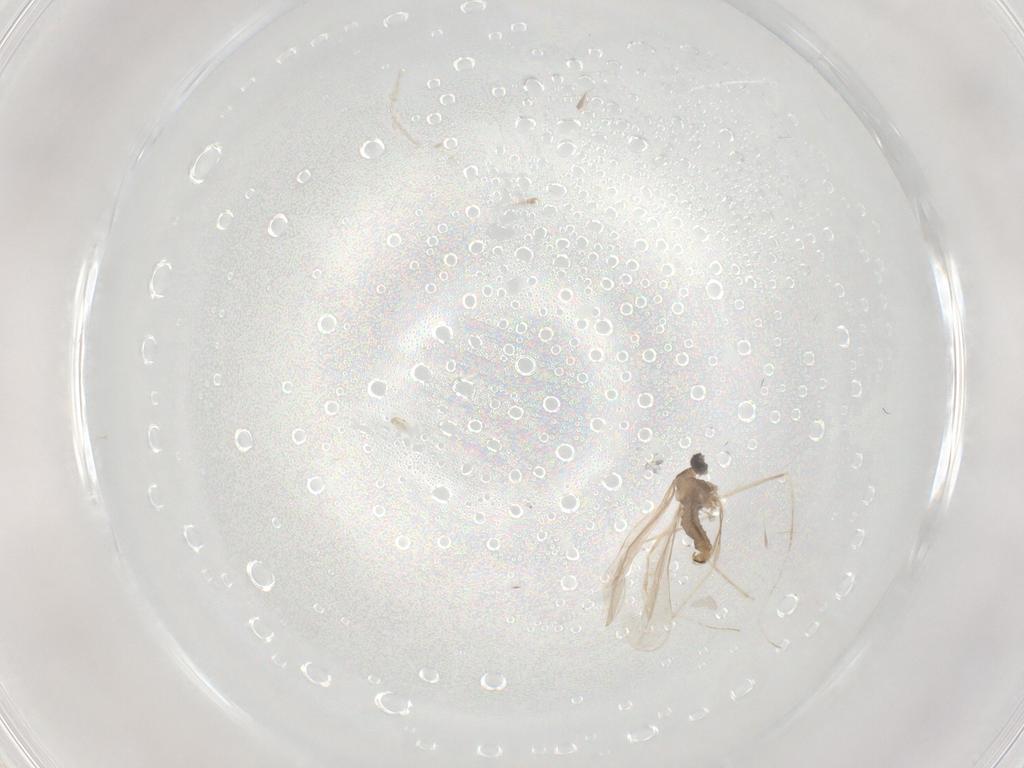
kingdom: Animalia
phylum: Arthropoda
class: Insecta
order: Diptera
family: Cecidomyiidae
